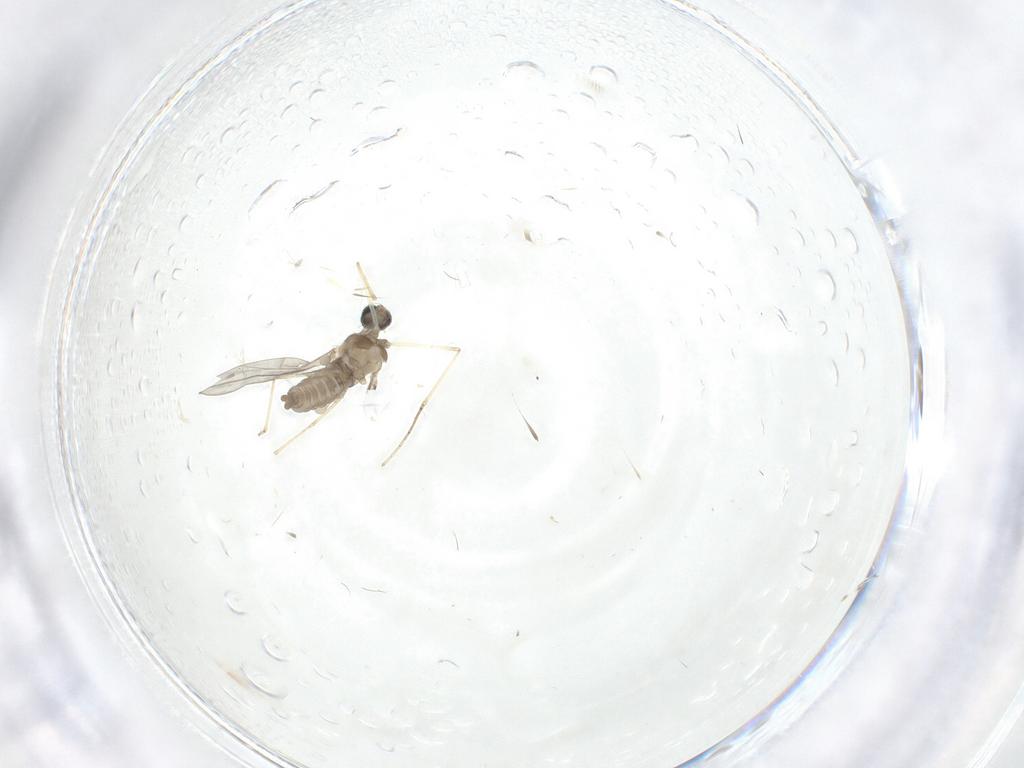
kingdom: Animalia
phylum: Arthropoda
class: Insecta
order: Diptera
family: Cecidomyiidae
